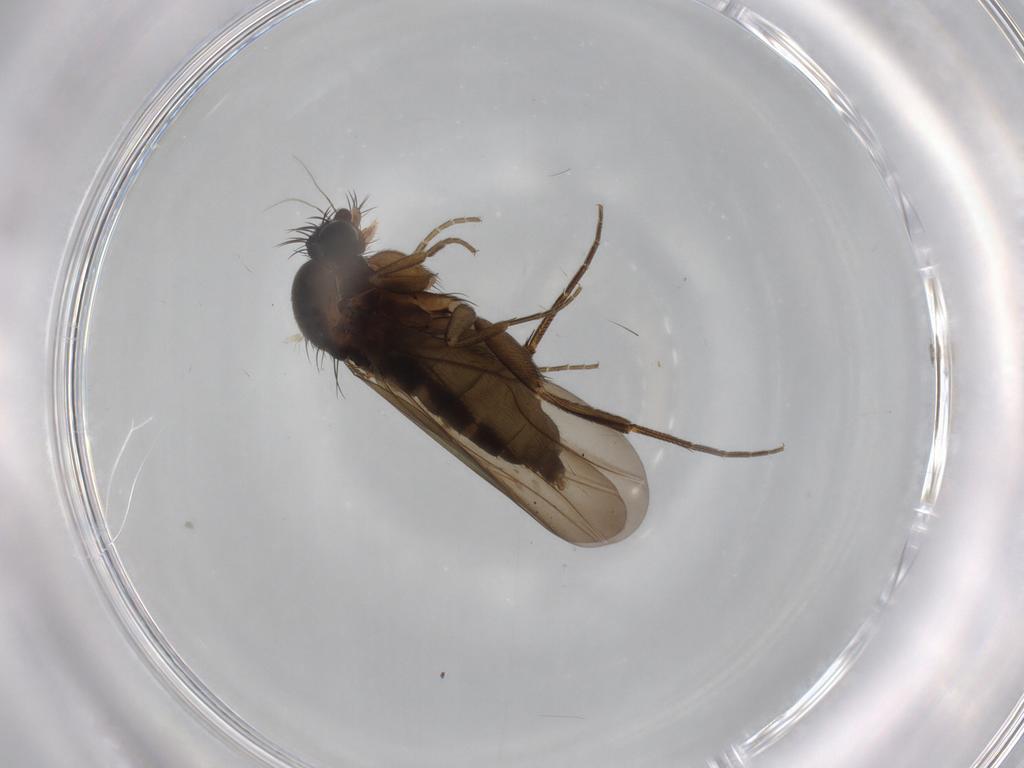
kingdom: Animalia
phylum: Arthropoda
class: Insecta
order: Diptera
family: Phoridae
